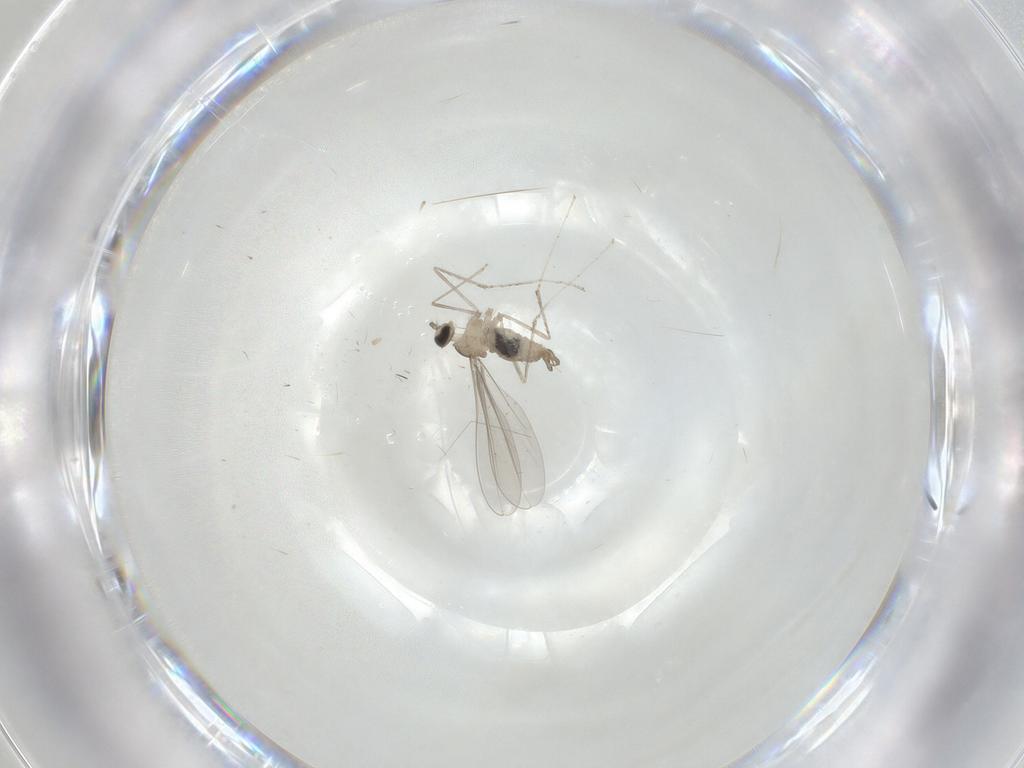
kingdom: Animalia
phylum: Arthropoda
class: Insecta
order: Diptera
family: Cecidomyiidae
